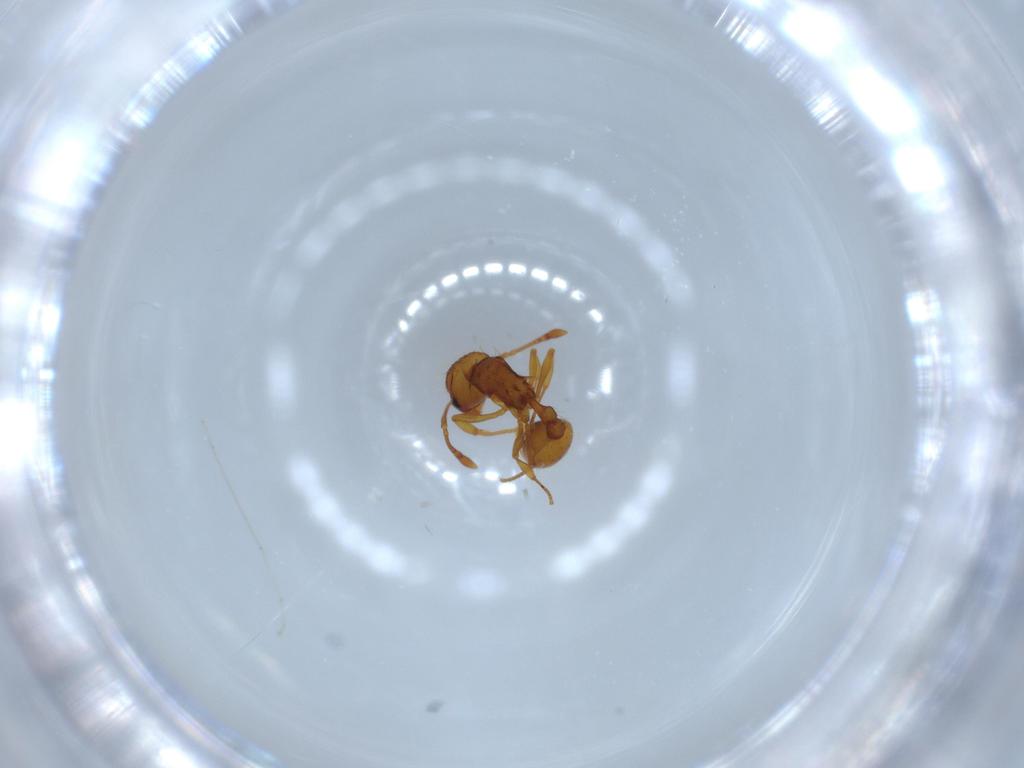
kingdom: Animalia
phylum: Arthropoda
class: Insecta
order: Hymenoptera
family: Formicidae
